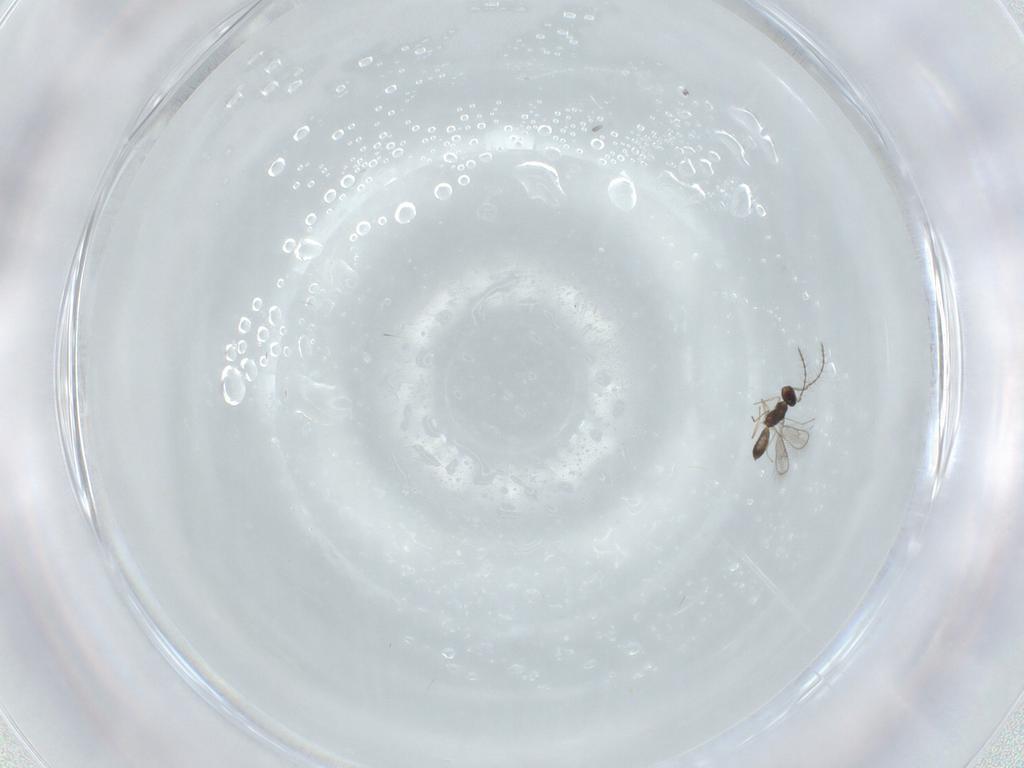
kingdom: Animalia
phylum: Arthropoda
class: Insecta
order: Hymenoptera
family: Pteromalidae
